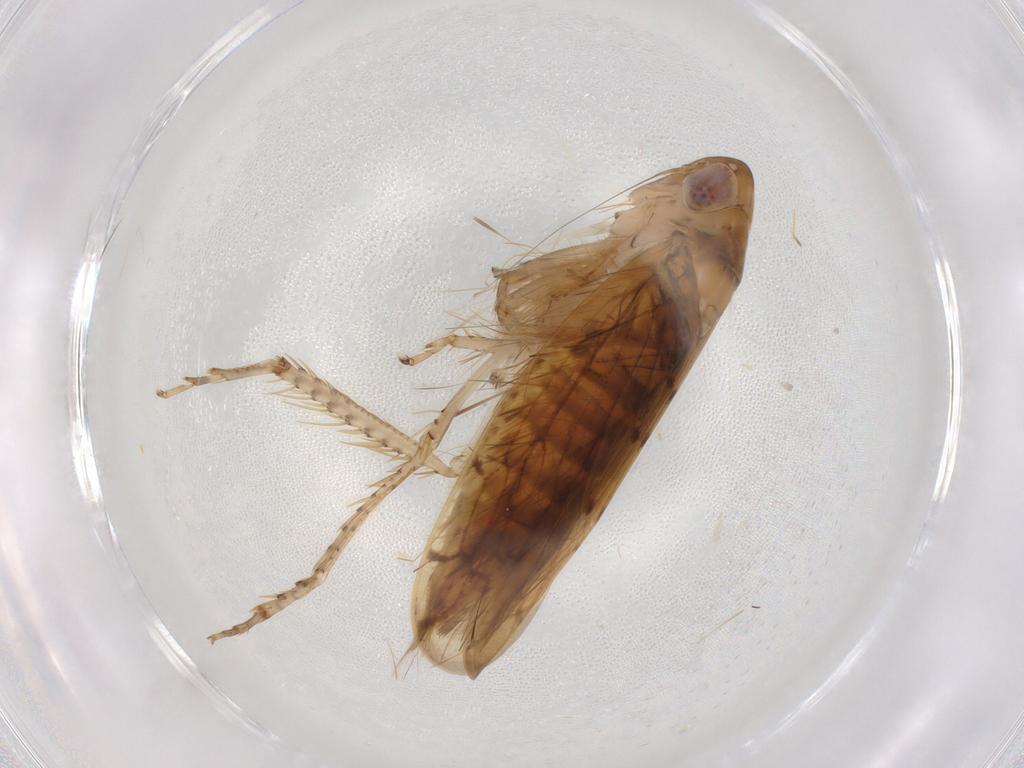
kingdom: Animalia
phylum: Arthropoda
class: Insecta
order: Hemiptera
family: Cicadellidae
